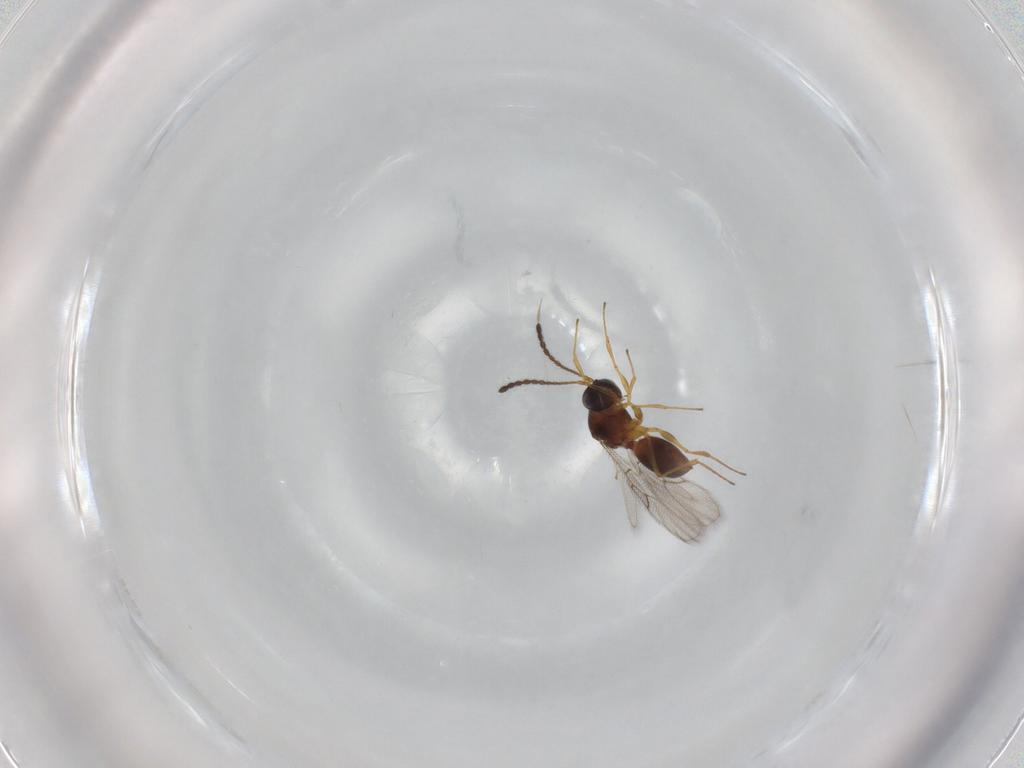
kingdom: Animalia
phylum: Arthropoda
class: Insecta
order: Hymenoptera
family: Figitidae
